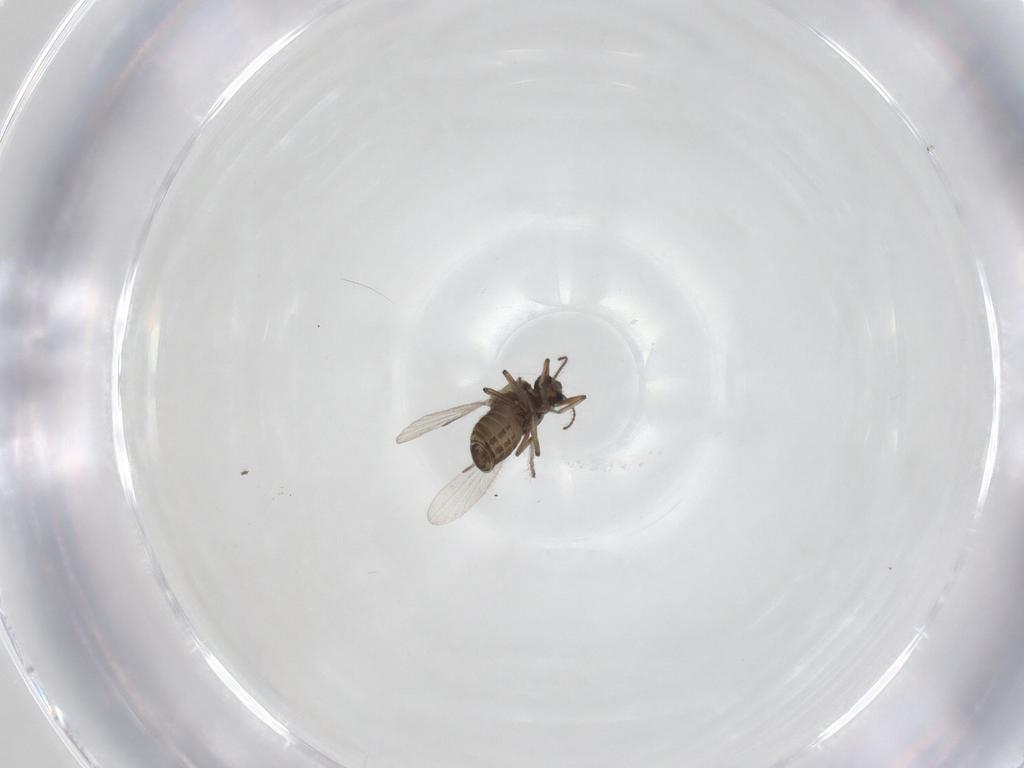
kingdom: Animalia
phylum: Arthropoda
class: Insecta
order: Diptera
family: Ceratopogonidae
